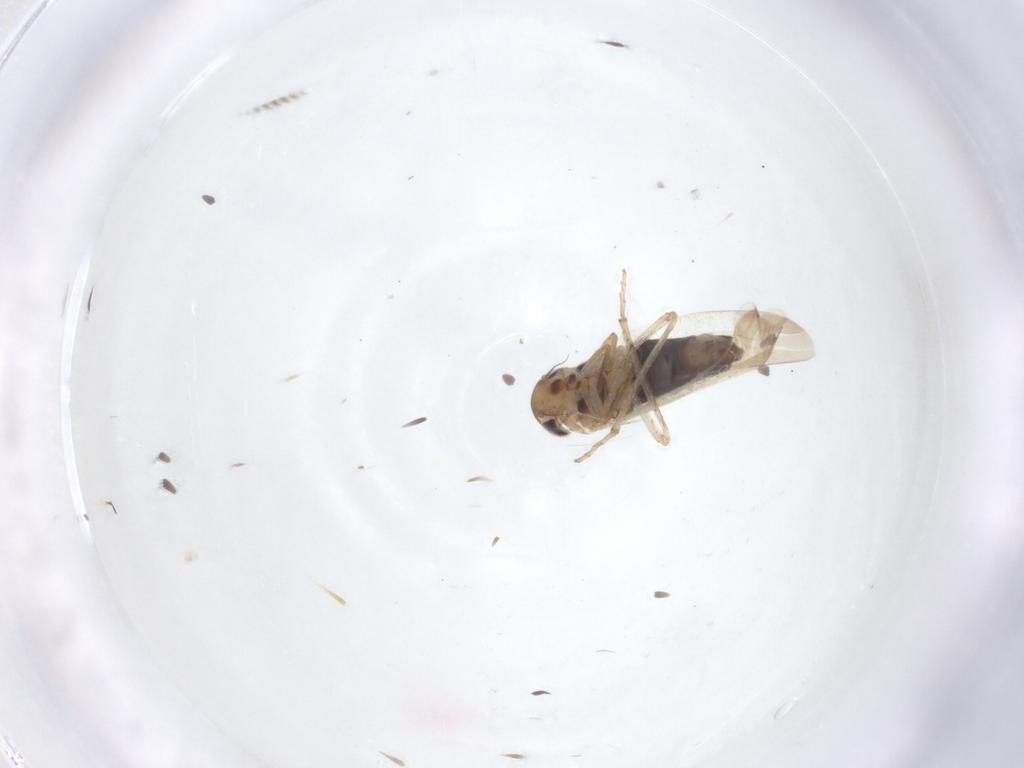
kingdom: Animalia
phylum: Arthropoda
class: Insecta
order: Hemiptera
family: Cicadellidae
